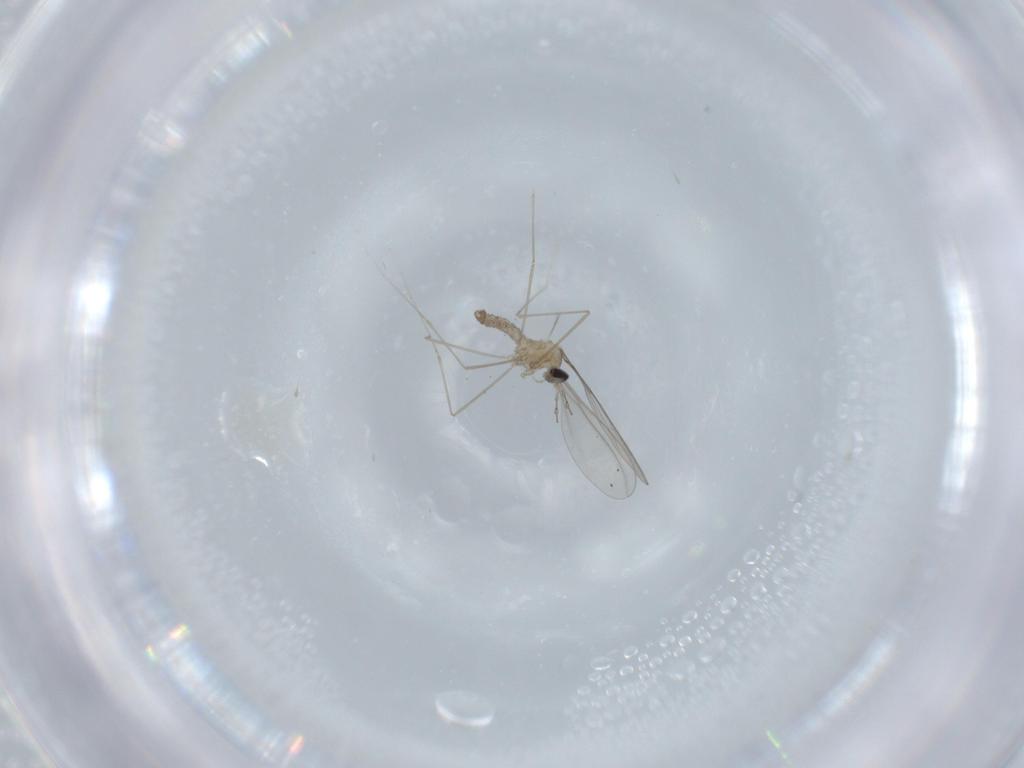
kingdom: Animalia
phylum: Arthropoda
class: Insecta
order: Diptera
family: Cecidomyiidae
